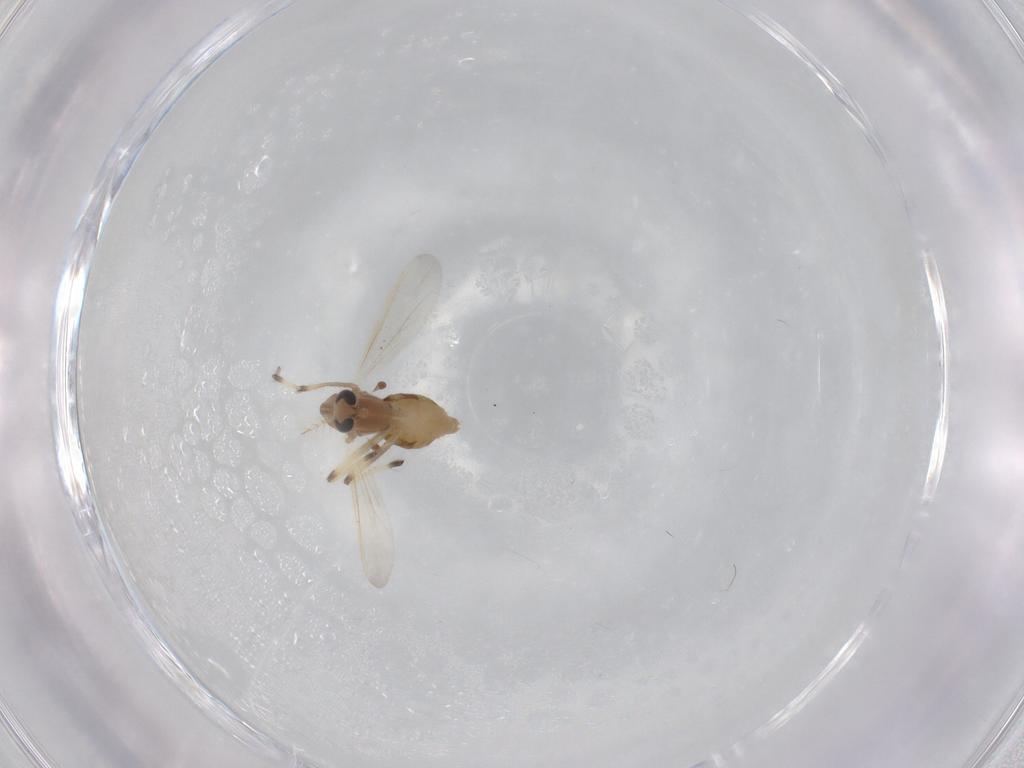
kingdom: Animalia
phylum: Arthropoda
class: Insecta
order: Diptera
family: Chironomidae
